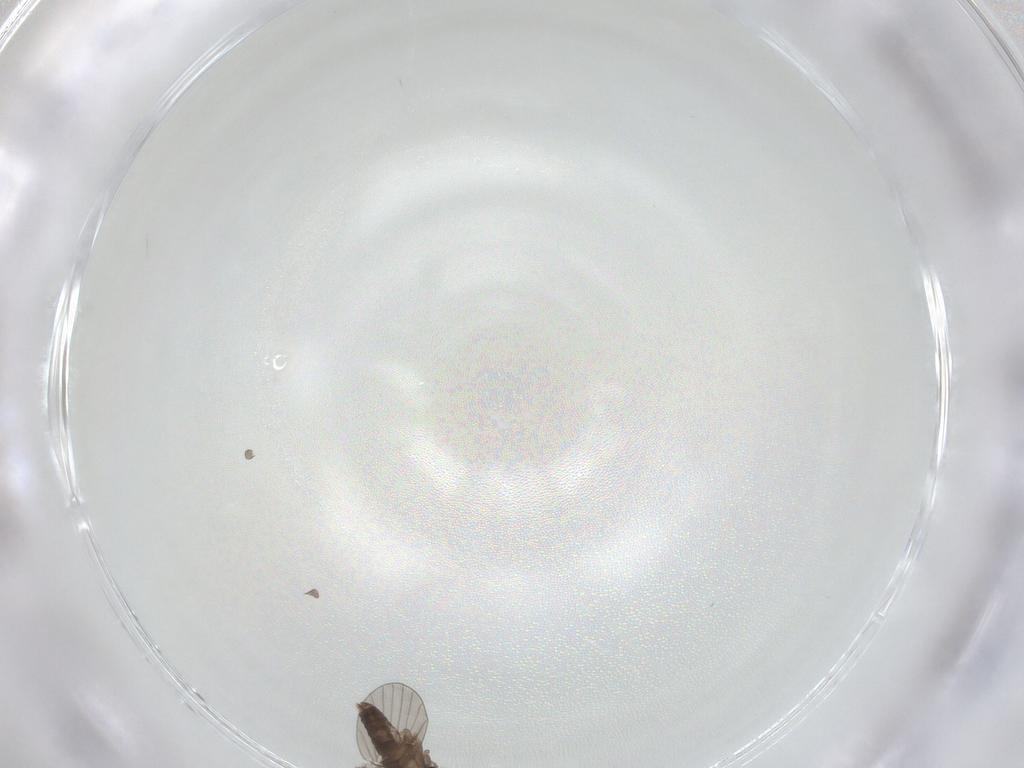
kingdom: Animalia
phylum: Arthropoda
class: Insecta
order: Diptera
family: Psychodidae
